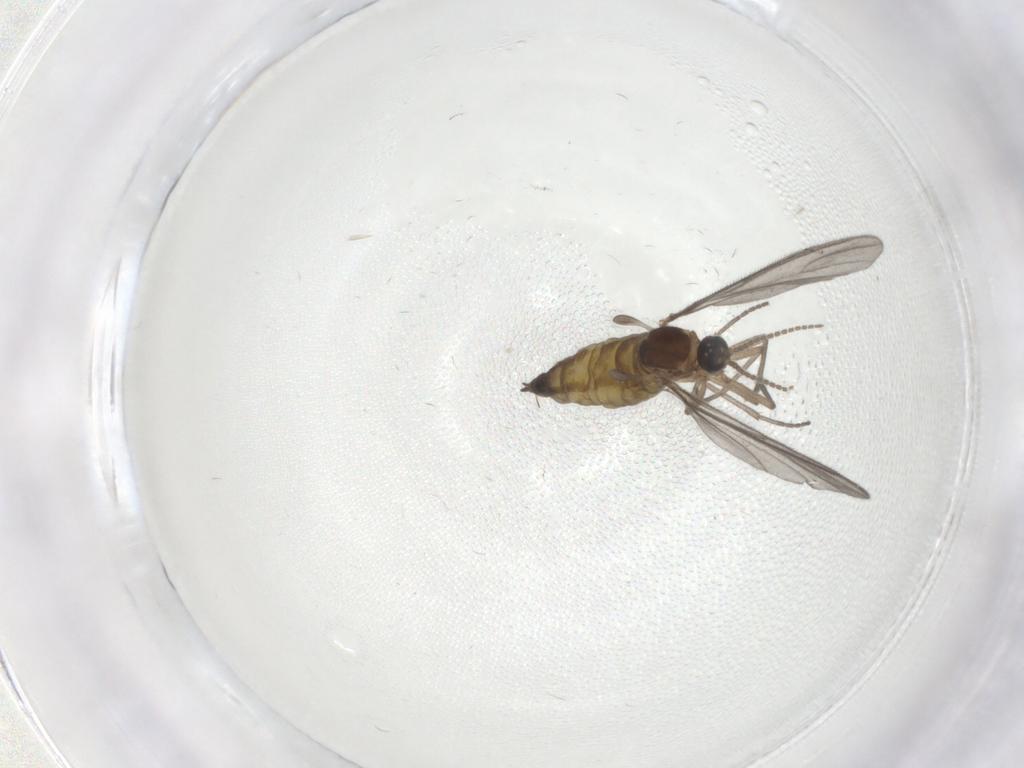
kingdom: Animalia
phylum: Arthropoda
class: Insecta
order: Diptera
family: Sciaridae
